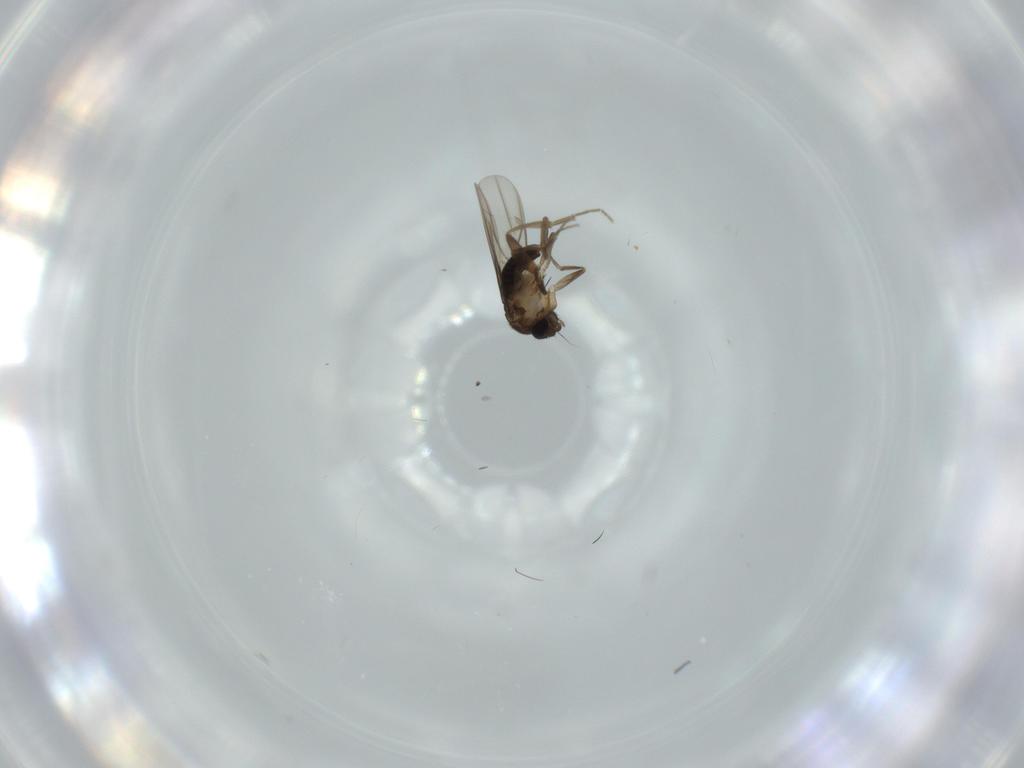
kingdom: Animalia
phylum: Arthropoda
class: Insecta
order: Diptera
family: Phoridae
